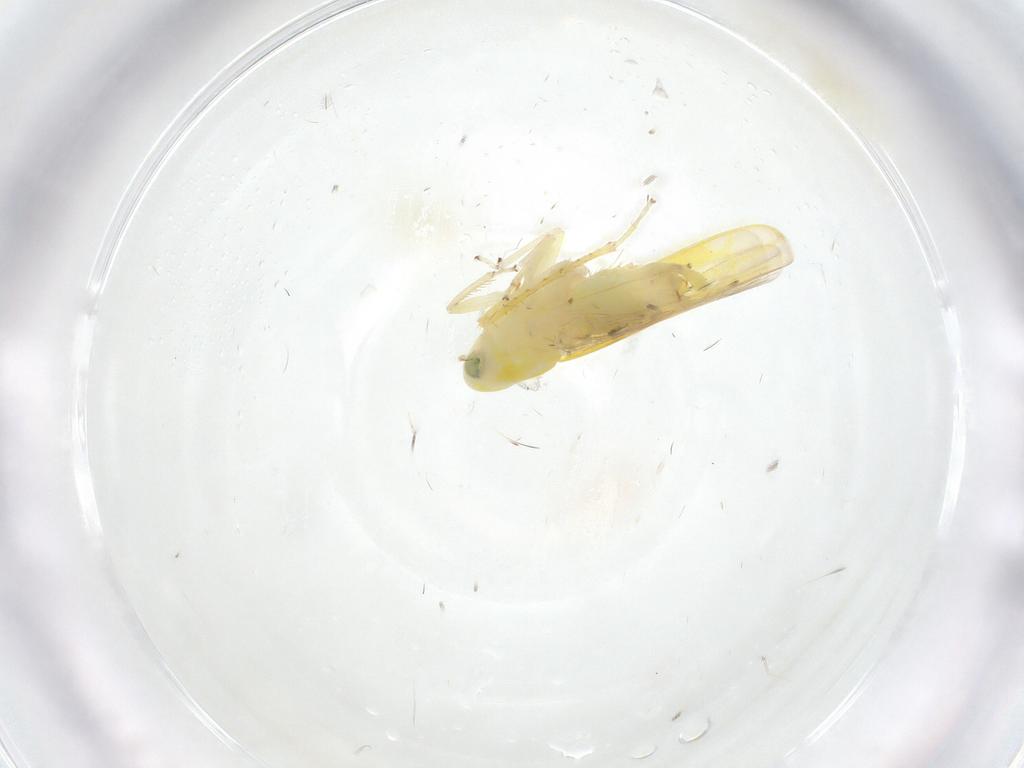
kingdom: Animalia
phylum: Arthropoda
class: Insecta
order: Hemiptera
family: Cicadellidae
